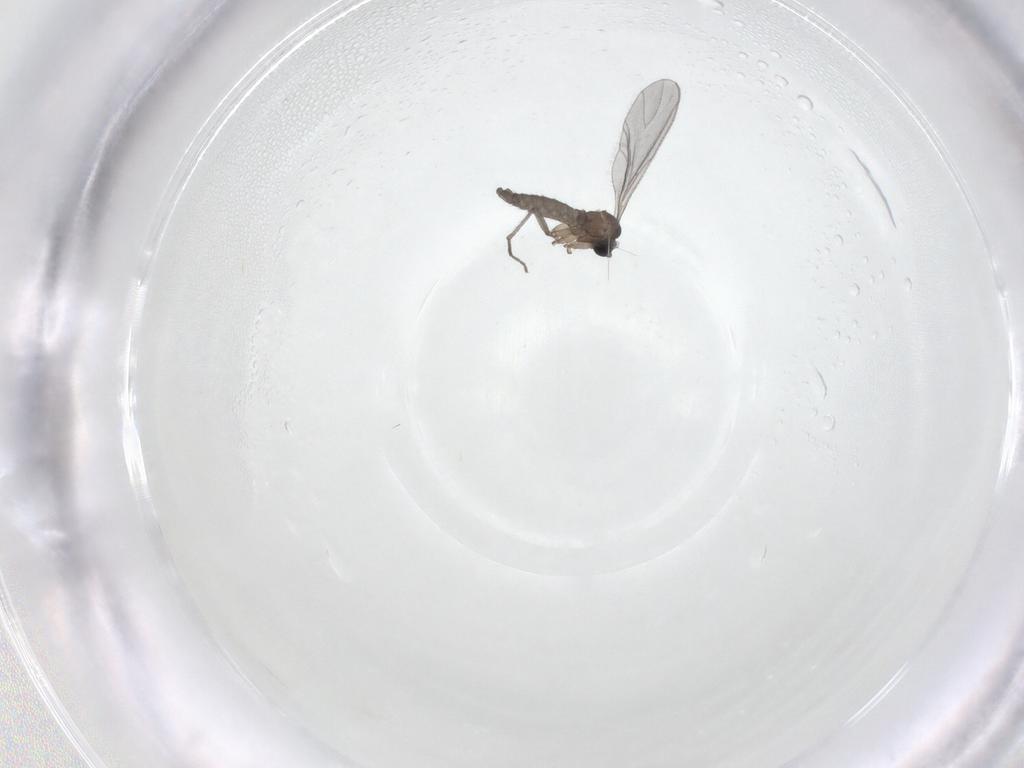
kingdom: Animalia
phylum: Arthropoda
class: Insecta
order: Diptera
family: Sciaridae
